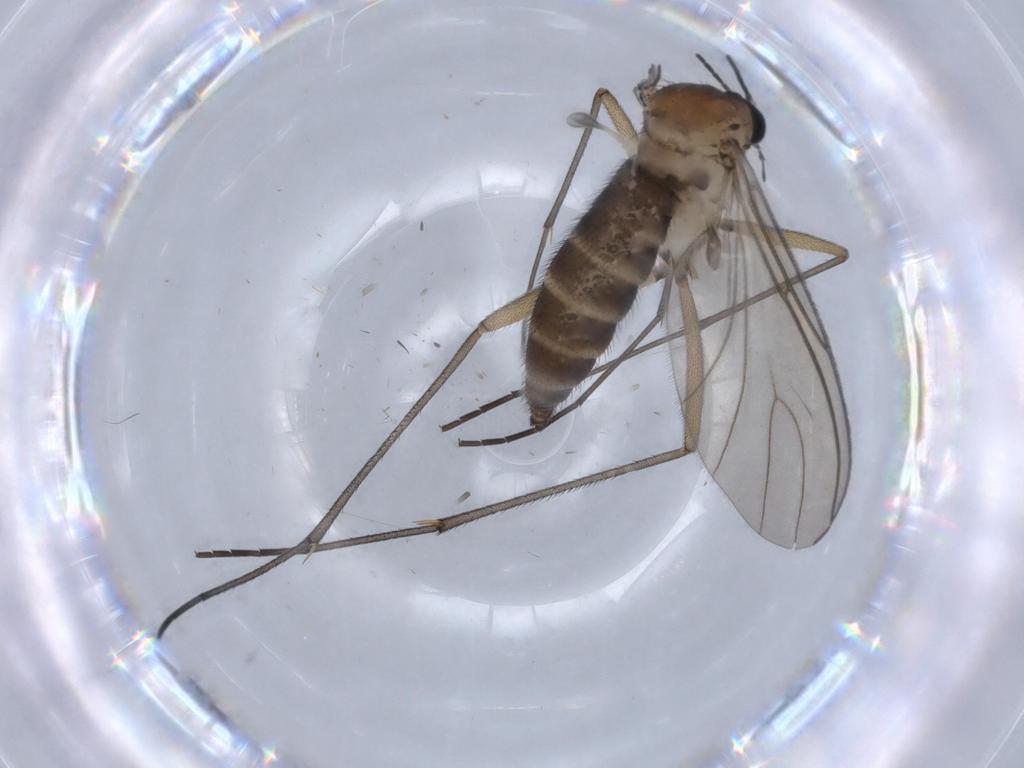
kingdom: Animalia
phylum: Arthropoda
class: Insecta
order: Diptera
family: Sciaridae
